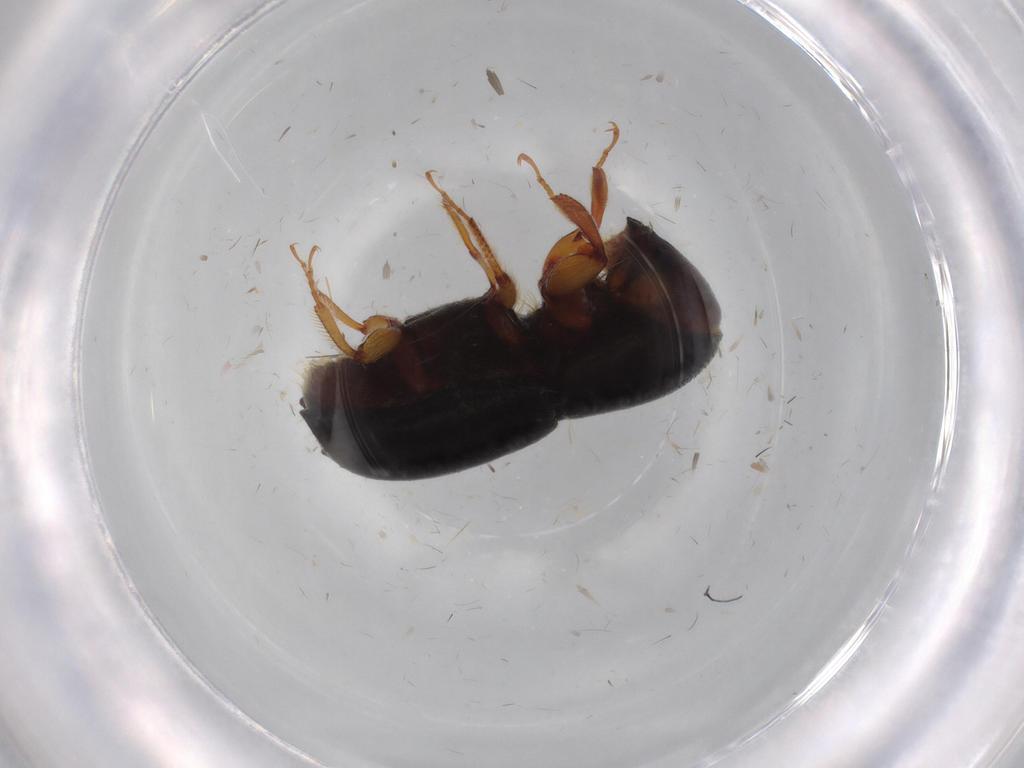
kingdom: Animalia
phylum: Arthropoda
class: Insecta
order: Coleoptera
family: Curculionidae
